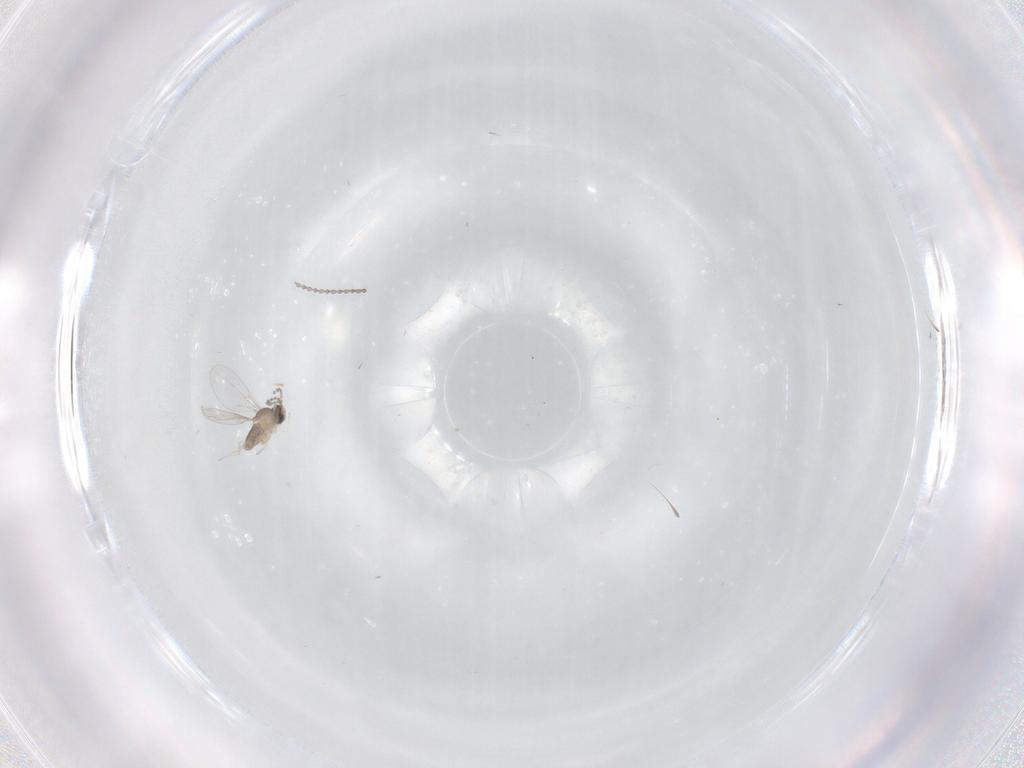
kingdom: Animalia
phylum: Arthropoda
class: Insecta
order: Diptera
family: Cecidomyiidae
